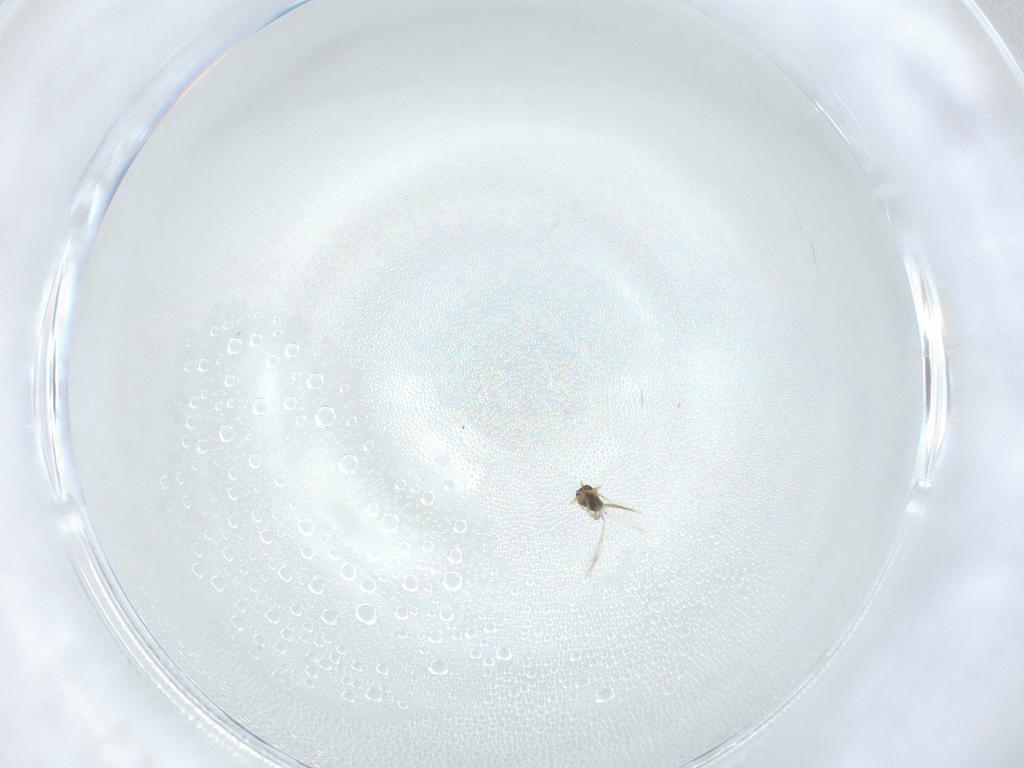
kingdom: Animalia
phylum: Arthropoda
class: Insecta
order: Hymenoptera
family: Mymaridae
